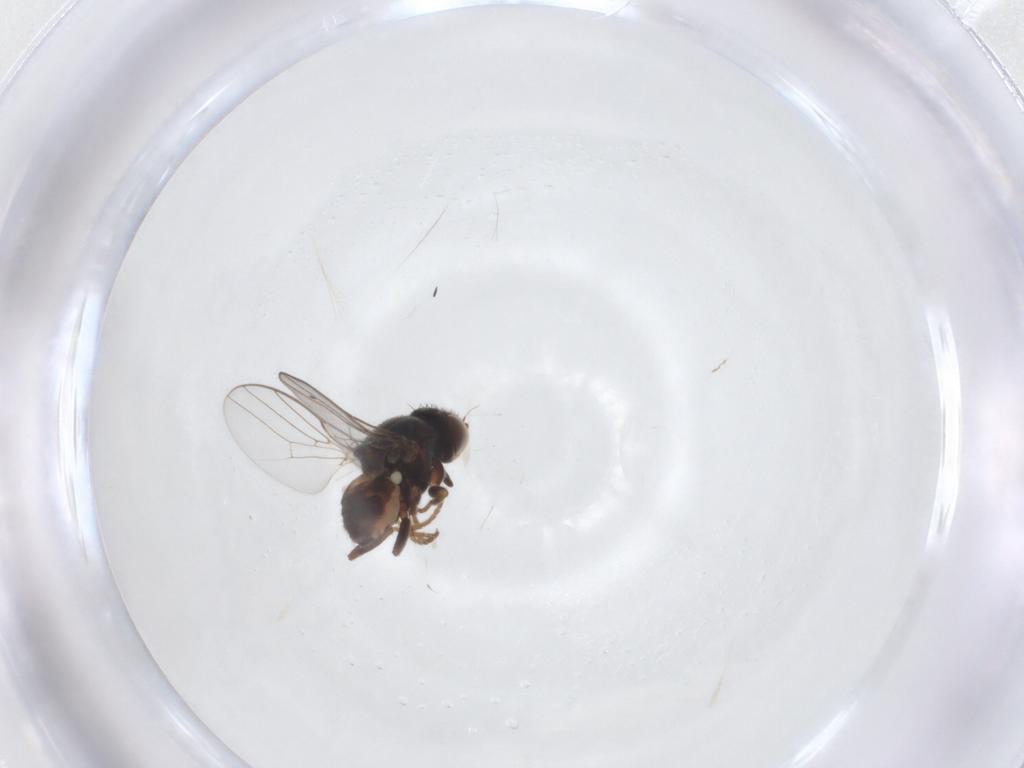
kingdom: Animalia
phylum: Arthropoda
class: Insecta
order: Diptera
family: Chloropidae
